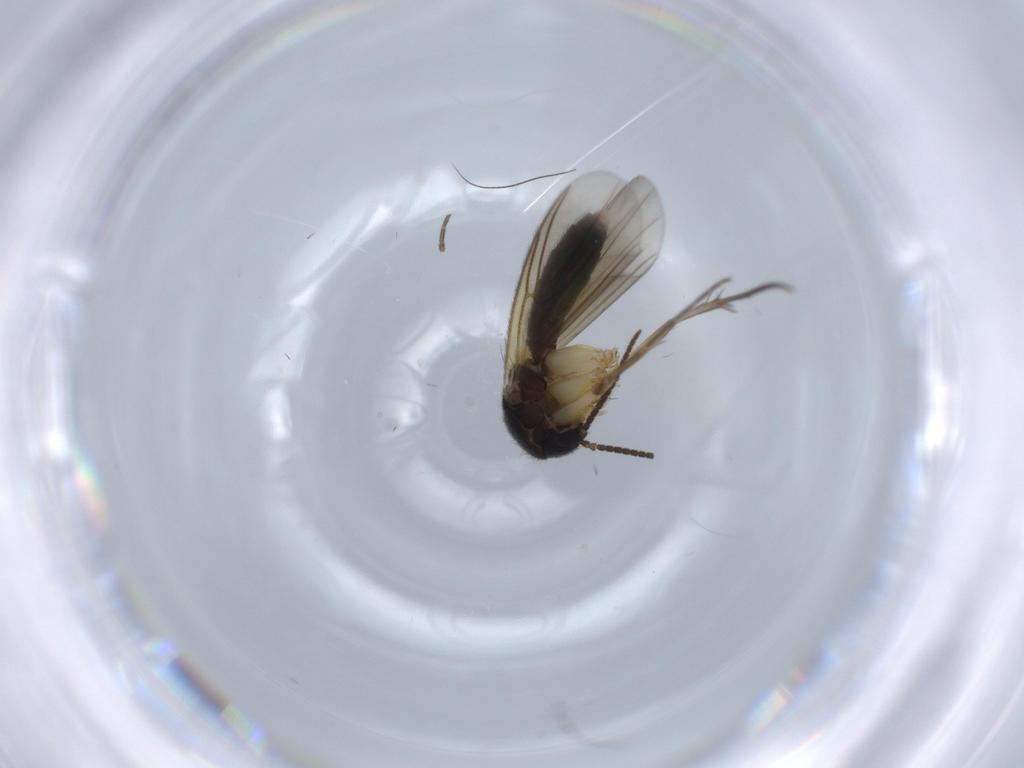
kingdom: Animalia
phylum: Arthropoda
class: Insecta
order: Diptera
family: Mycetophilidae
